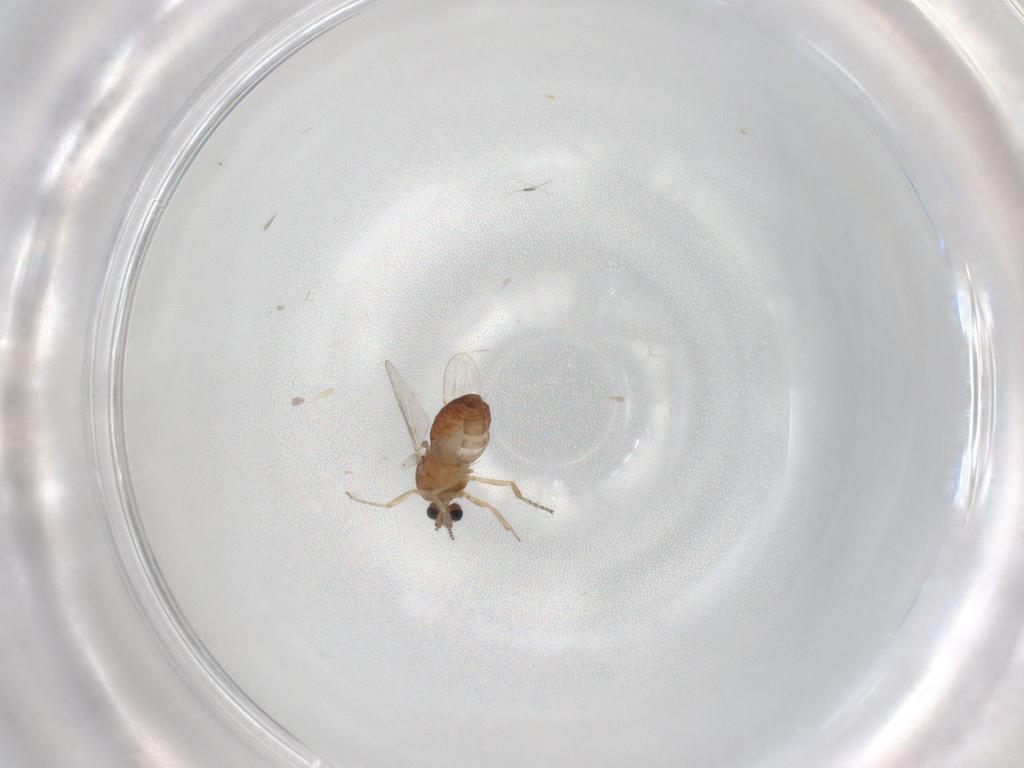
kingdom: Animalia
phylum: Arthropoda
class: Insecta
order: Diptera
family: Ceratopogonidae
